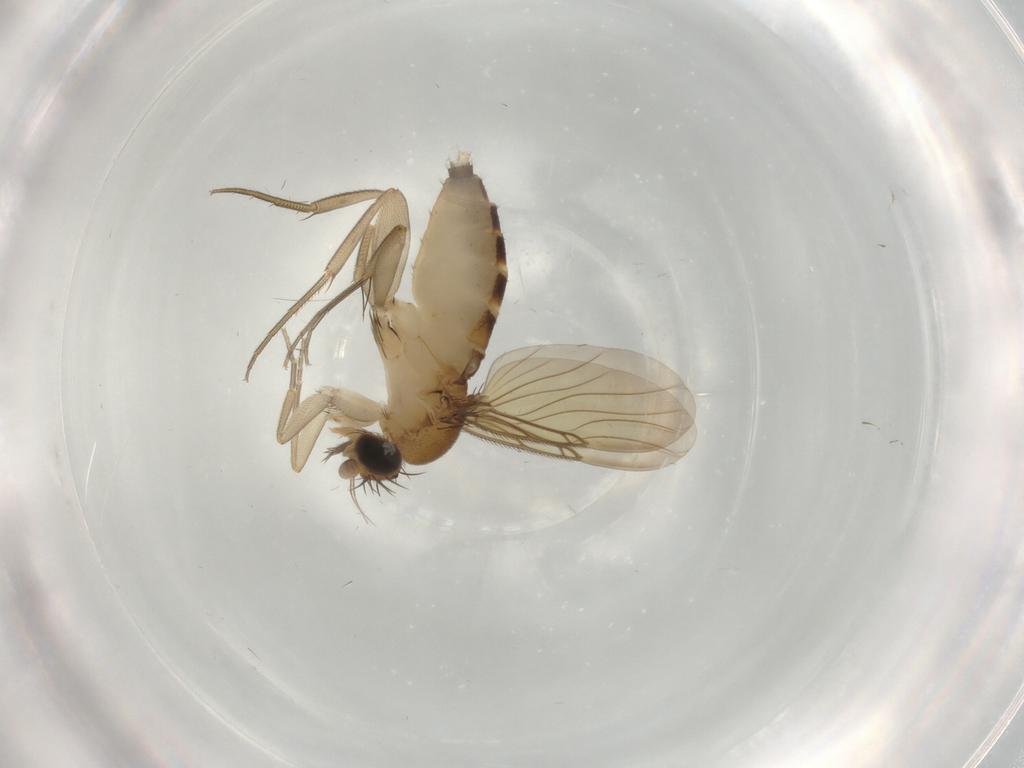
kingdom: Animalia
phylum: Arthropoda
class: Insecta
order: Diptera
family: Phoridae
